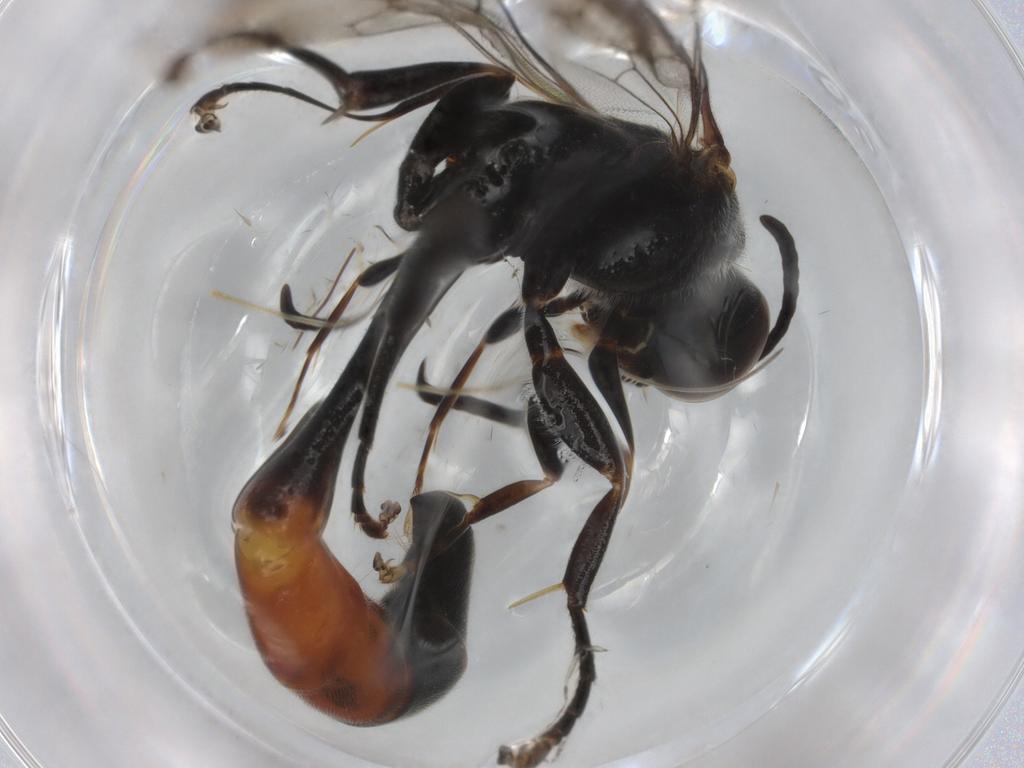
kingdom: Animalia
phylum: Arthropoda
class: Insecta
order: Hymenoptera
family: Crabronidae
